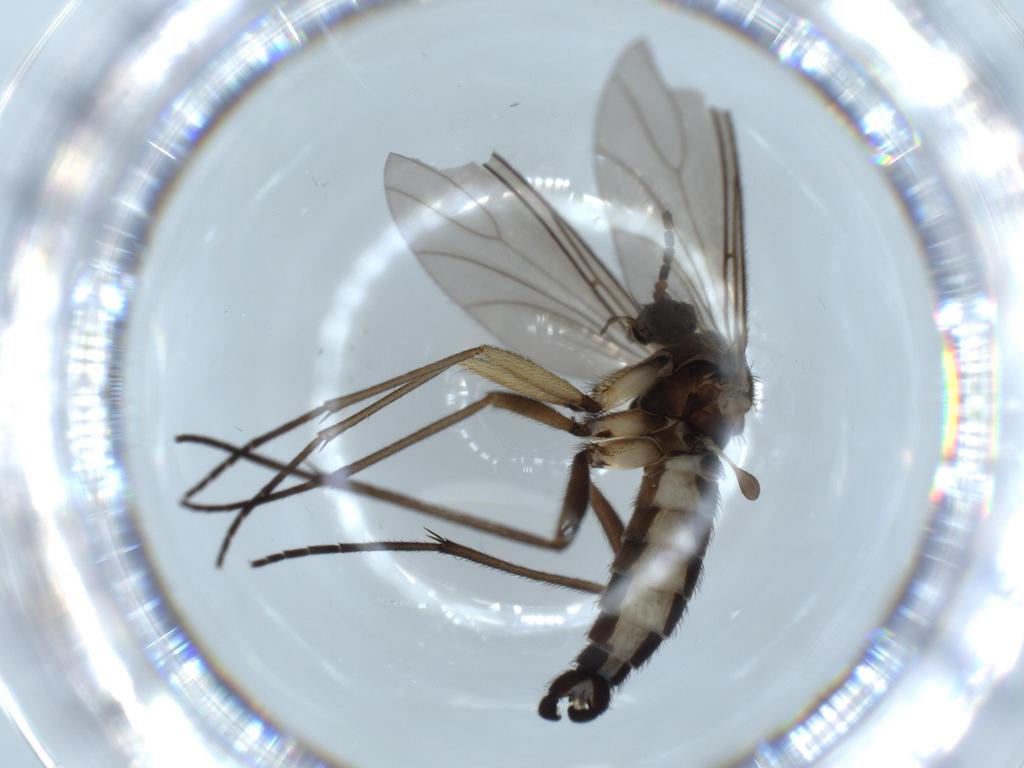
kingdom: Animalia
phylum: Arthropoda
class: Insecta
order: Diptera
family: Sciaridae
